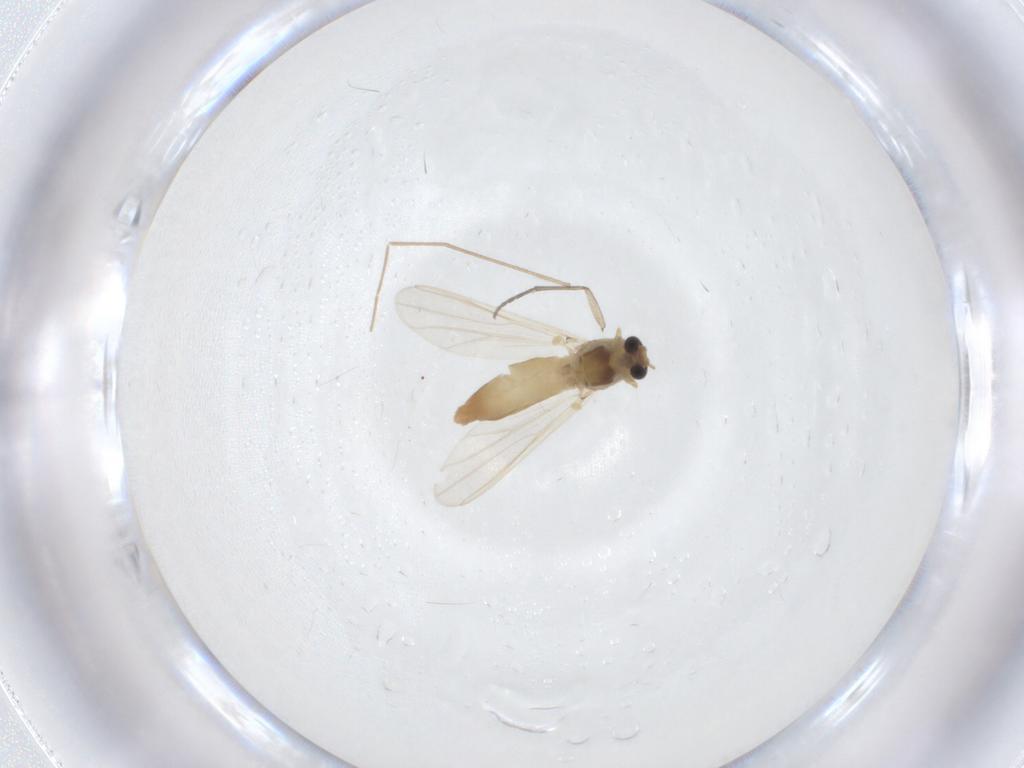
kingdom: Animalia
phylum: Arthropoda
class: Insecta
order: Diptera
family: Chironomidae
